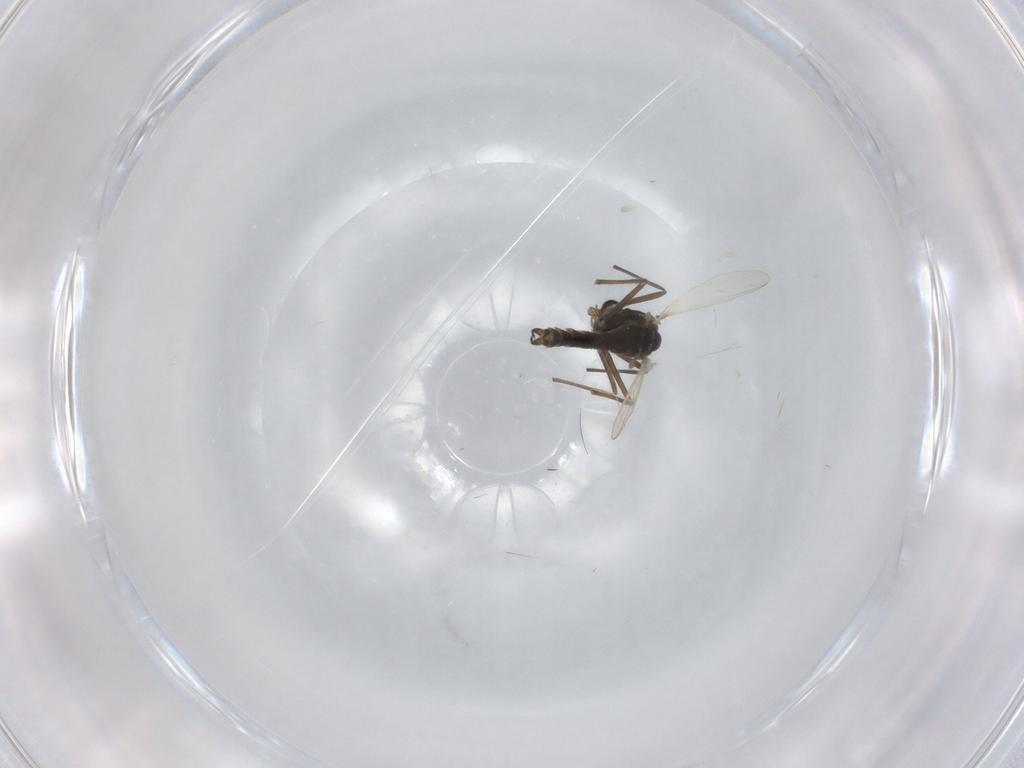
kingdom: Animalia
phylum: Arthropoda
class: Insecta
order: Diptera
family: Chironomidae
